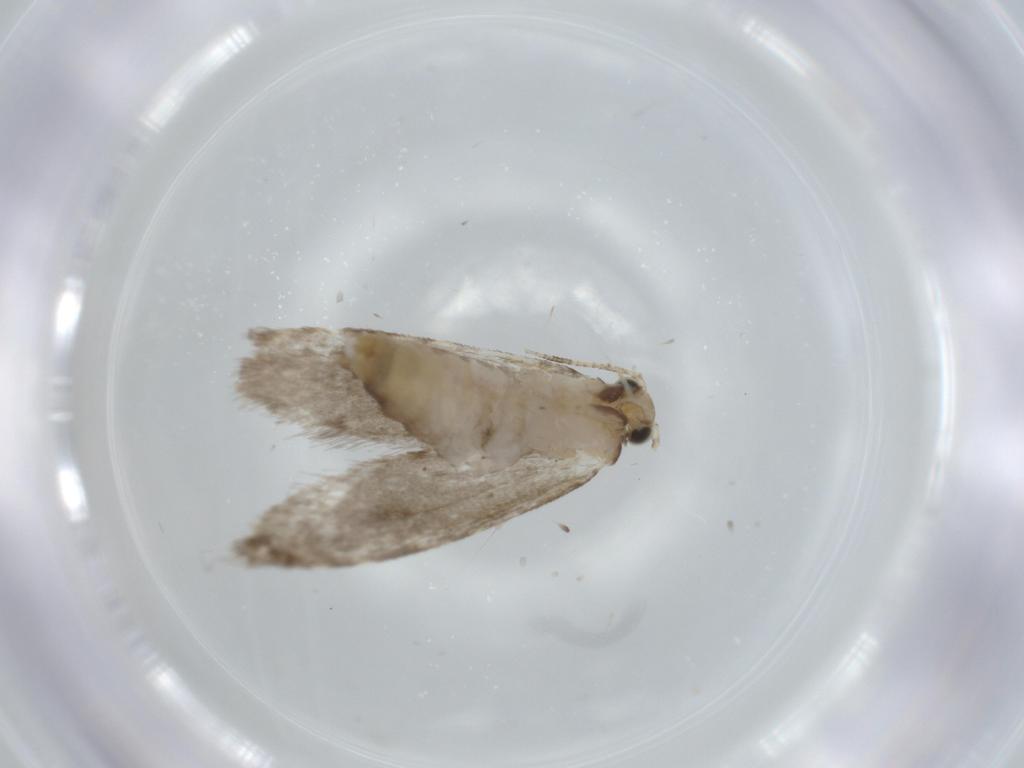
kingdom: Animalia
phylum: Arthropoda
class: Insecta
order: Lepidoptera
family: Tineidae
